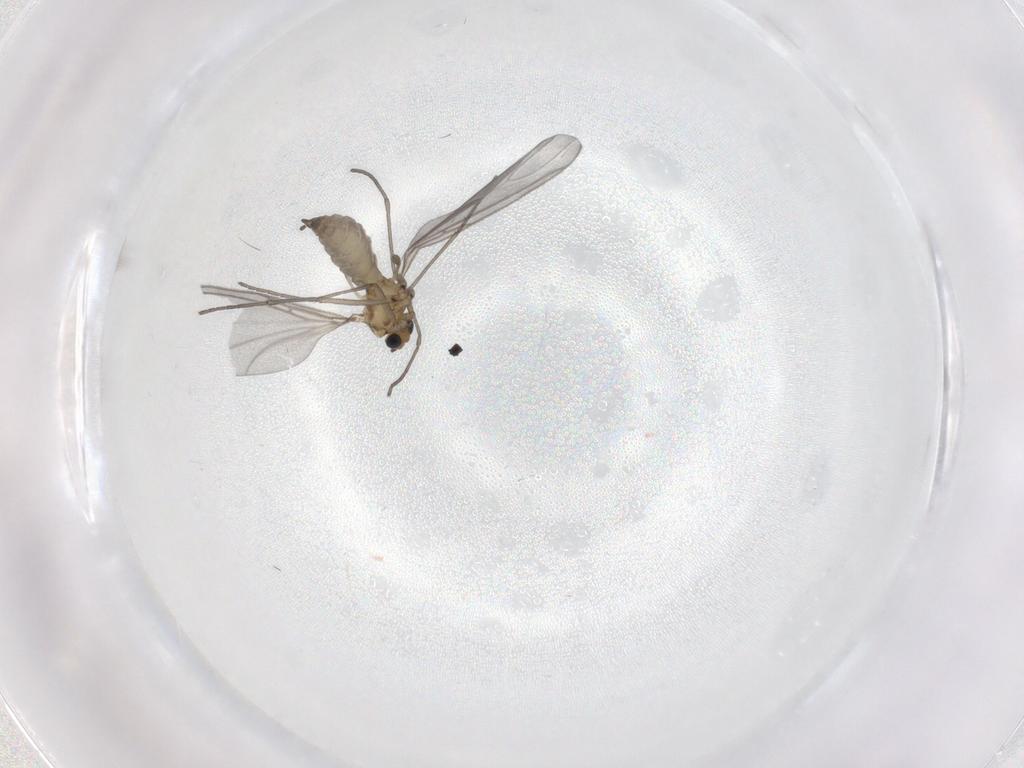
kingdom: Animalia
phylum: Arthropoda
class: Insecta
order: Diptera
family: Sciaridae
